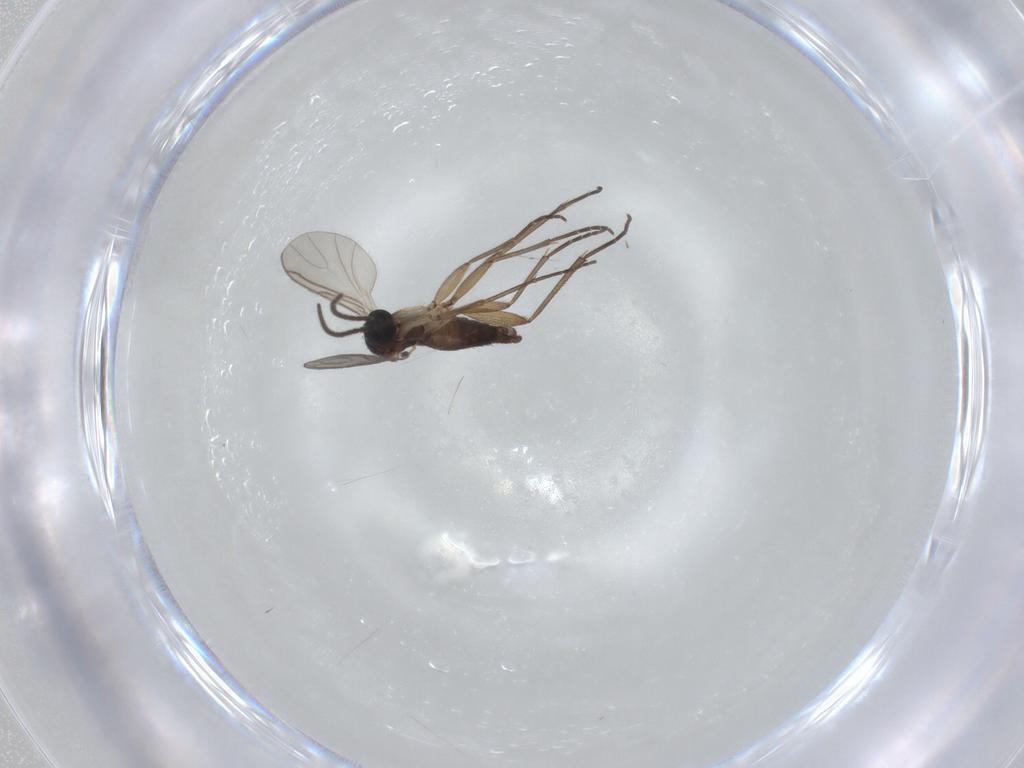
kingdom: Animalia
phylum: Arthropoda
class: Insecta
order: Diptera
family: Sciaridae
